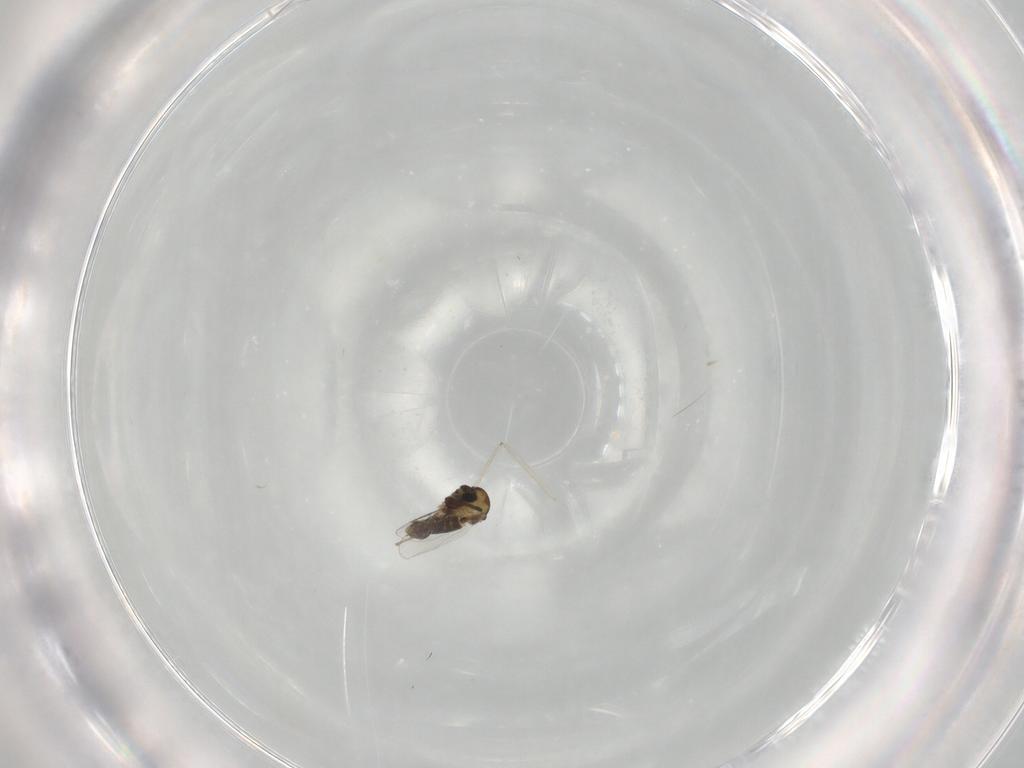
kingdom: Animalia
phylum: Arthropoda
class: Insecta
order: Diptera
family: Chironomidae
